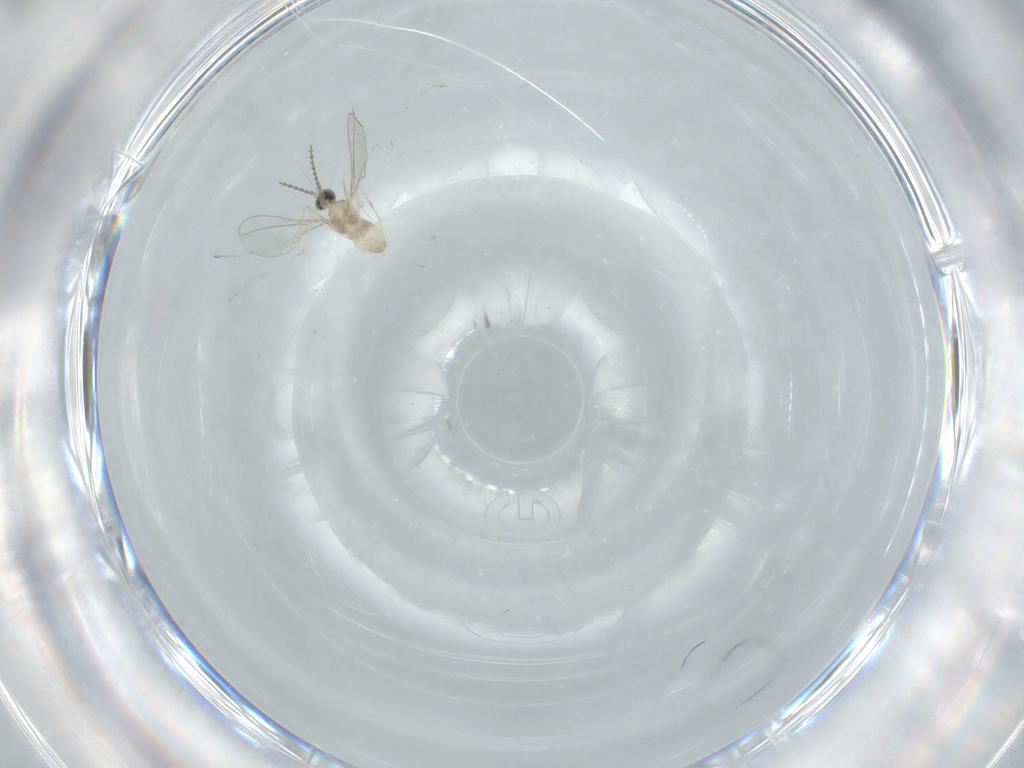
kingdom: Animalia
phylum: Arthropoda
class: Insecta
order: Diptera
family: Cecidomyiidae
